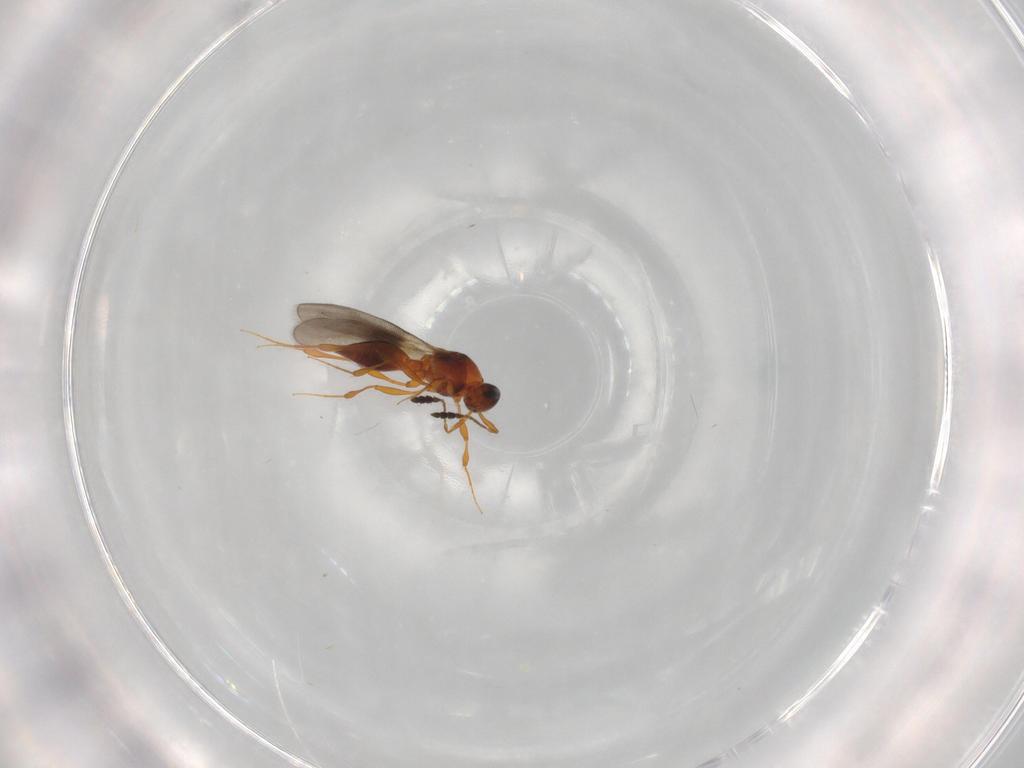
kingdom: Animalia
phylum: Arthropoda
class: Insecta
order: Hymenoptera
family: Platygastridae
